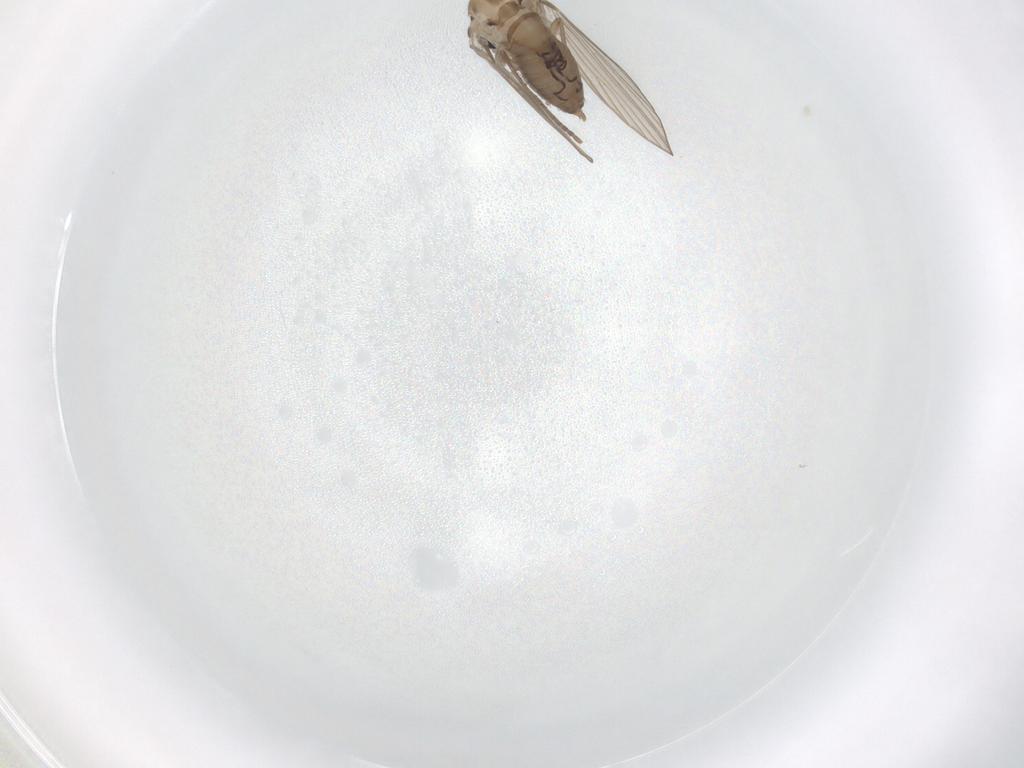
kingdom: Animalia
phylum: Arthropoda
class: Insecta
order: Diptera
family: Psychodidae
